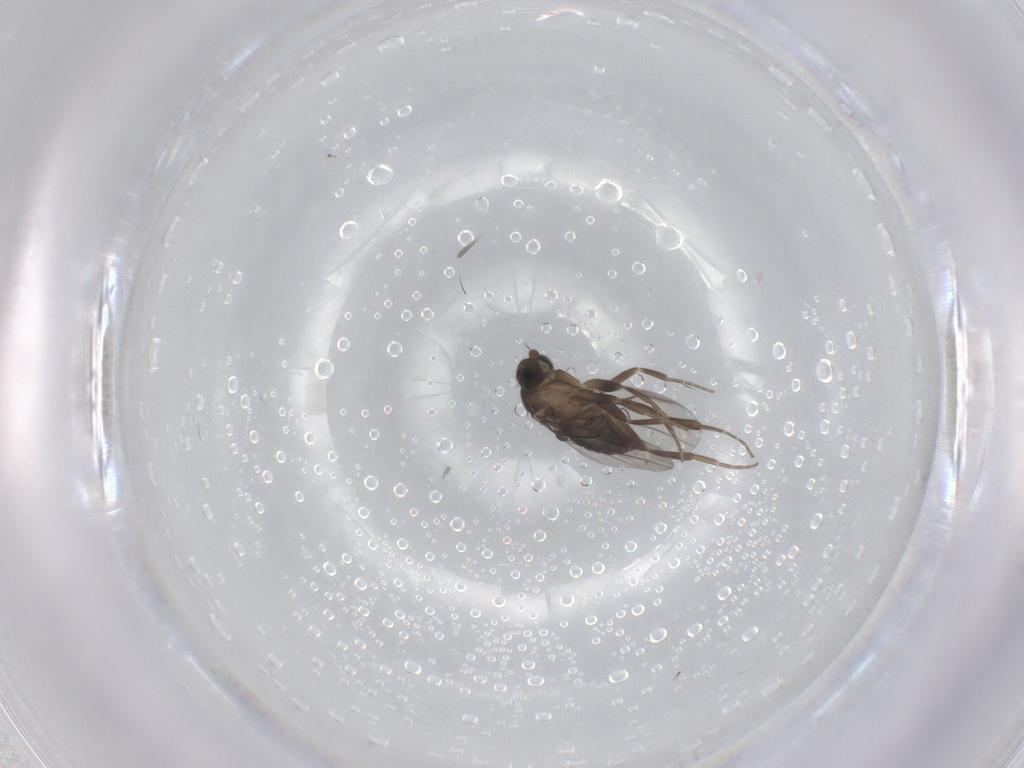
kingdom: Animalia
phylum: Arthropoda
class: Insecta
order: Diptera
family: Phoridae
